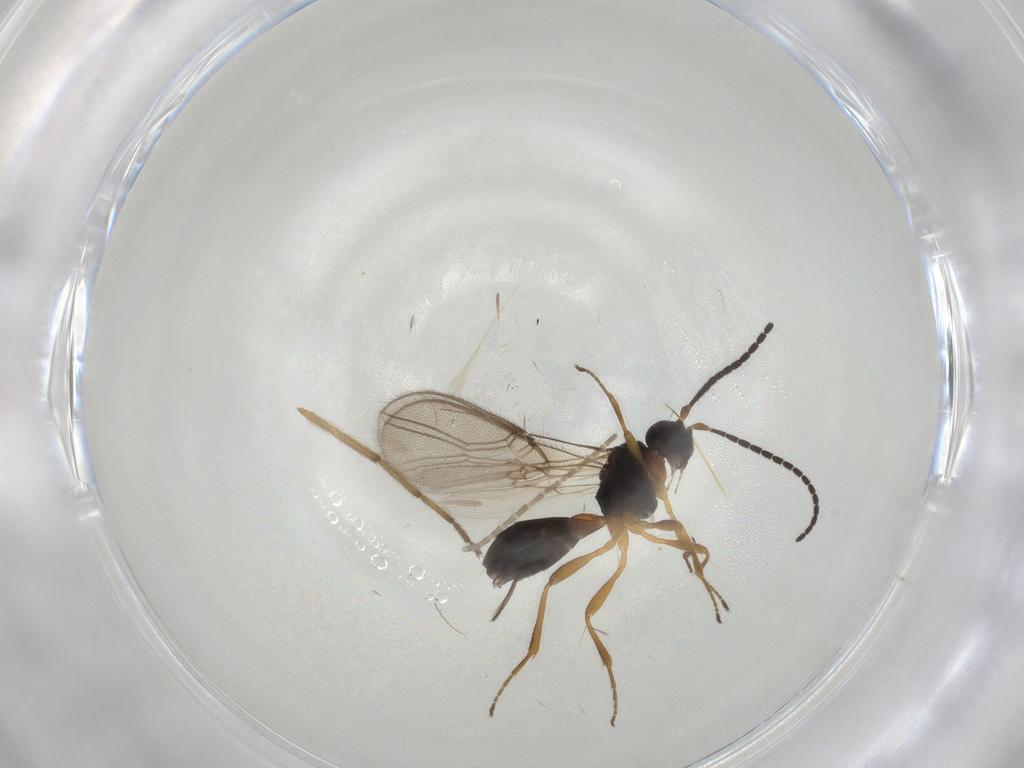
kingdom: Animalia
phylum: Arthropoda
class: Insecta
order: Hymenoptera
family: Braconidae
